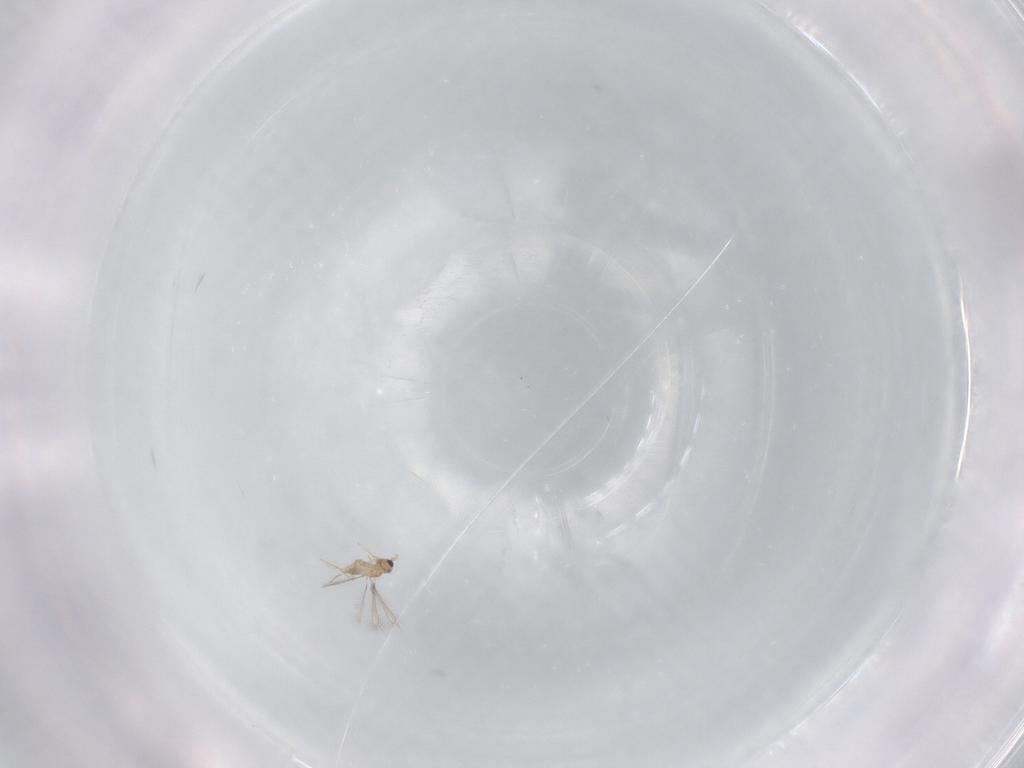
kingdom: Animalia
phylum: Arthropoda
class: Insecta
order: Hymenoptera
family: Mymaridae
